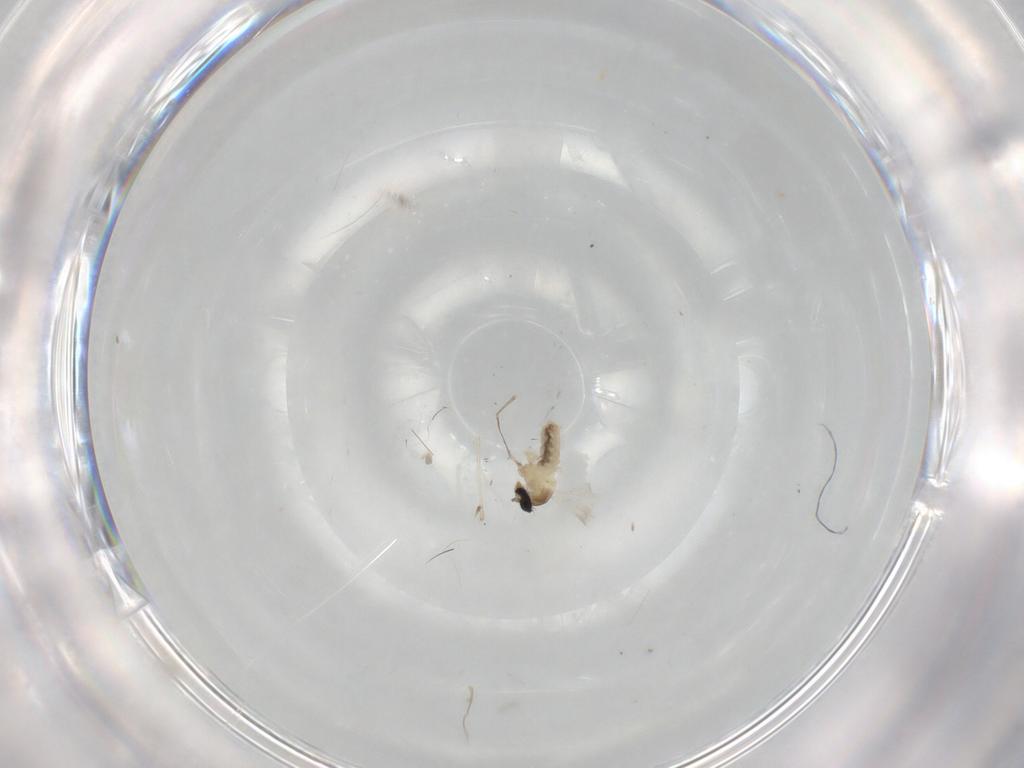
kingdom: Animalia
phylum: Arthropoda
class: Insecta
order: Diptera
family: Cecidomyiidae
